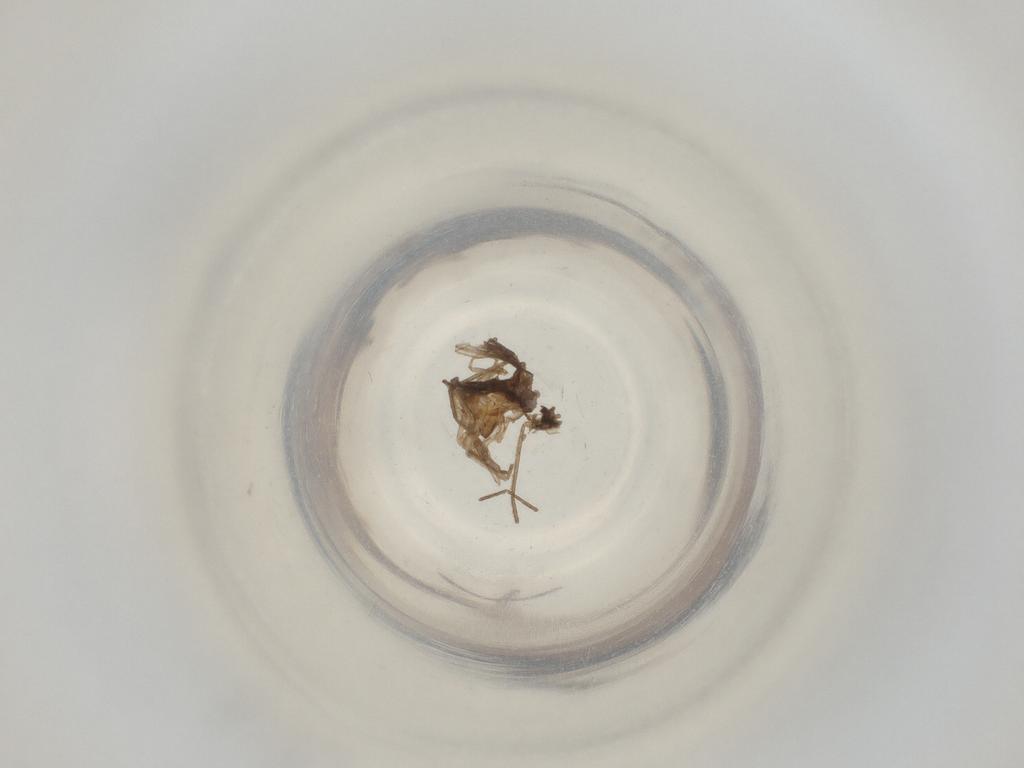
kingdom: Animalia
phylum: Arthropoda
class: Insecta
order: Diptera
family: Cecidomyiidae
